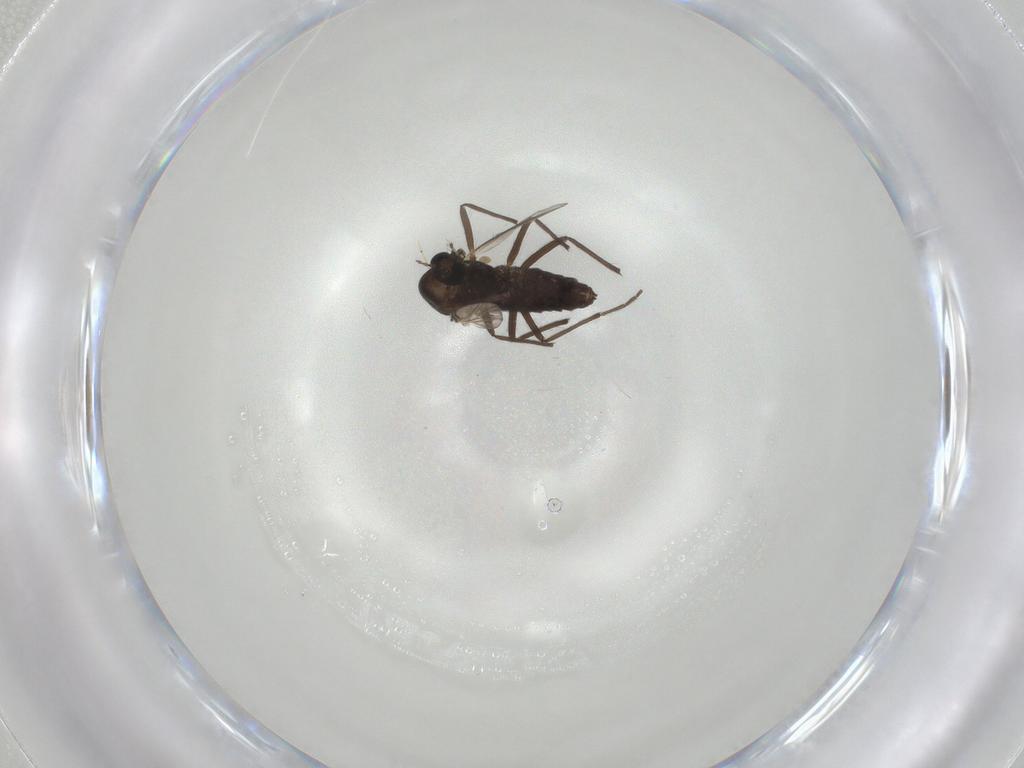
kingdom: Animalia
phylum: Arthropoda
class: Insecta
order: Diptera
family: Chironomidae
